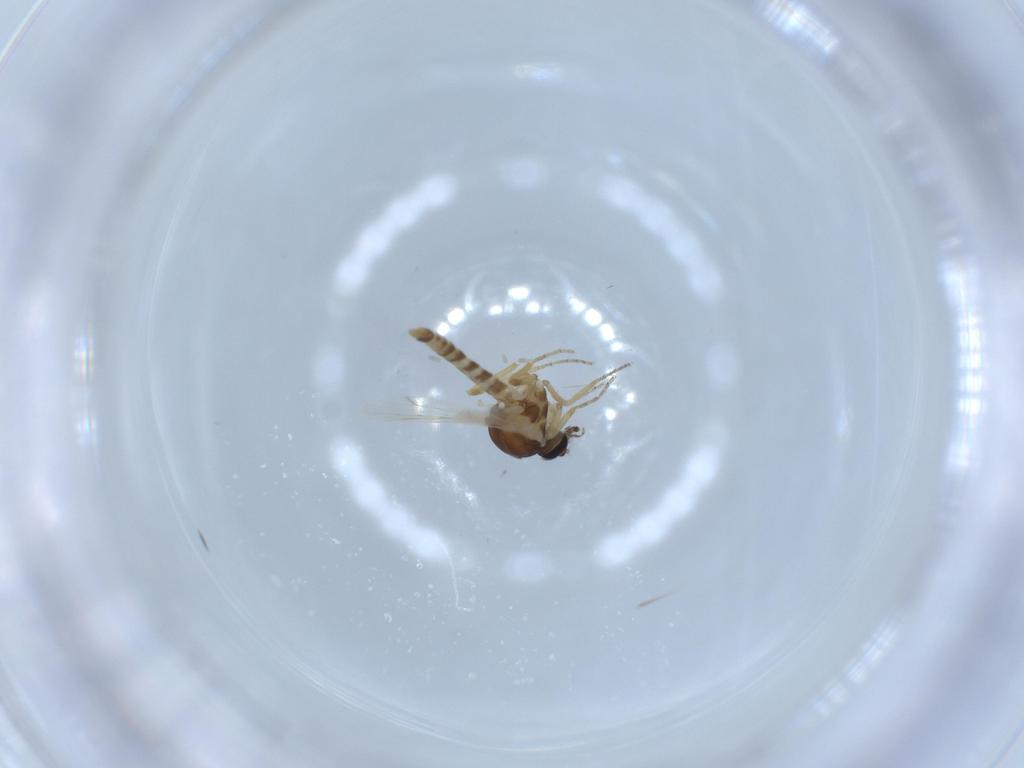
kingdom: Animalia
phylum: Arthropoda
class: Insecta
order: Diptera
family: Ceratopogonidae
